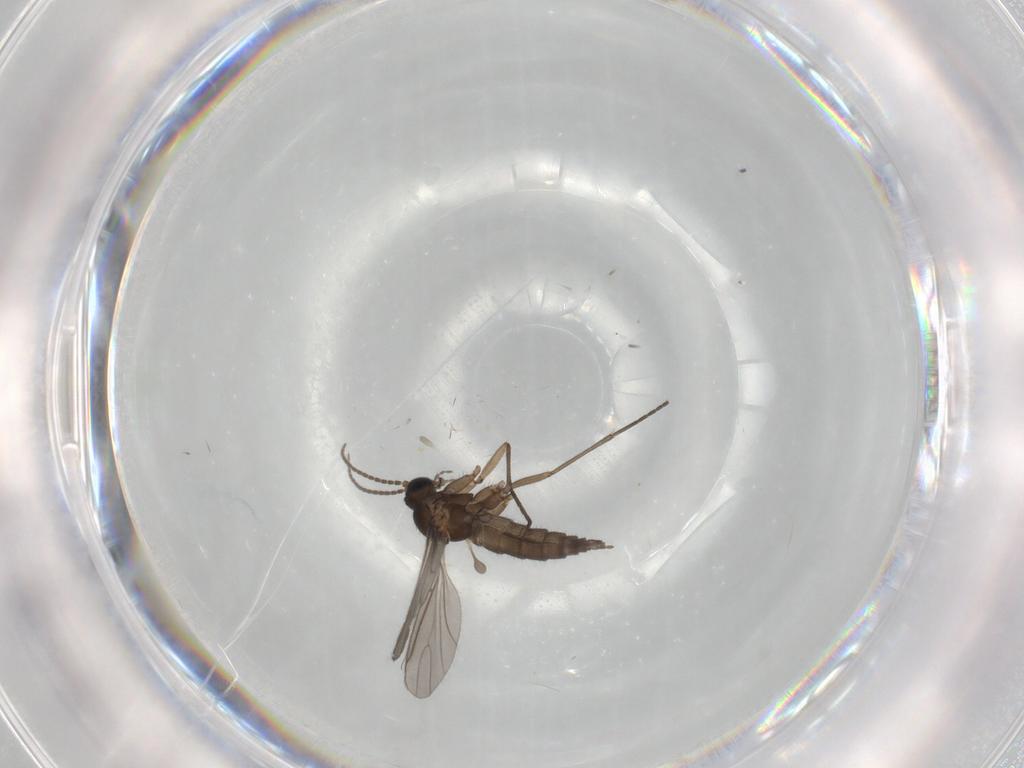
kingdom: Animalia
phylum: Arthropoda
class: Insecta
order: Diptera
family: Sciaridae
